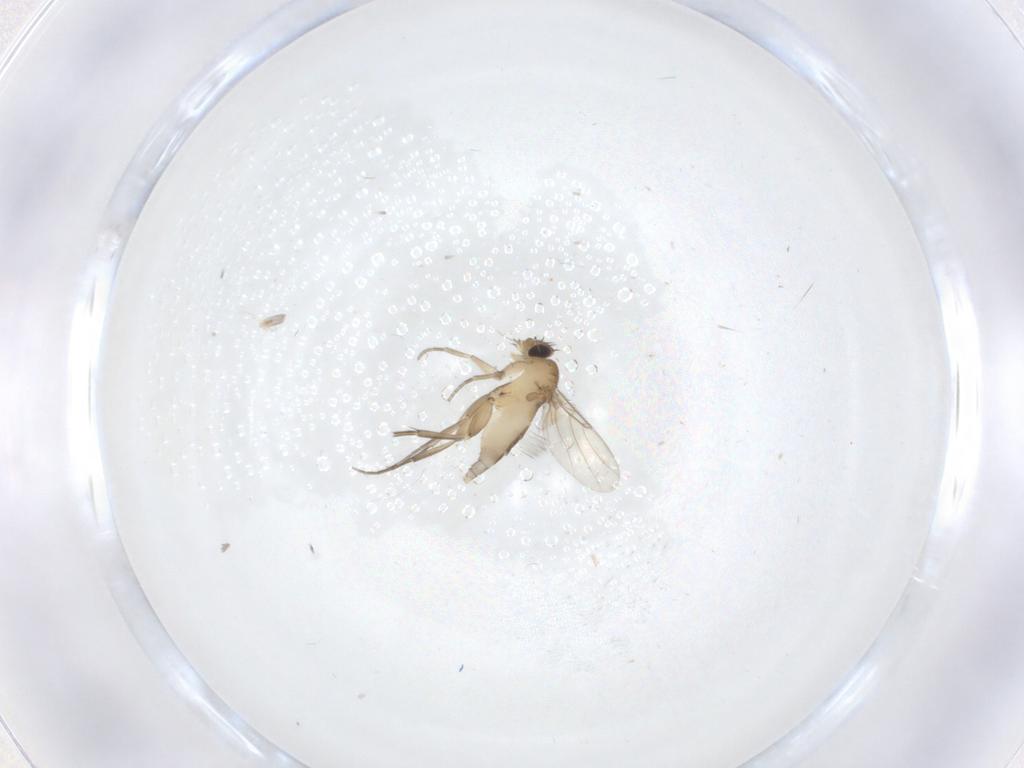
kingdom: Animalia
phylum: Arthropoda
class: Insecta
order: Diptera
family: Phoridae
